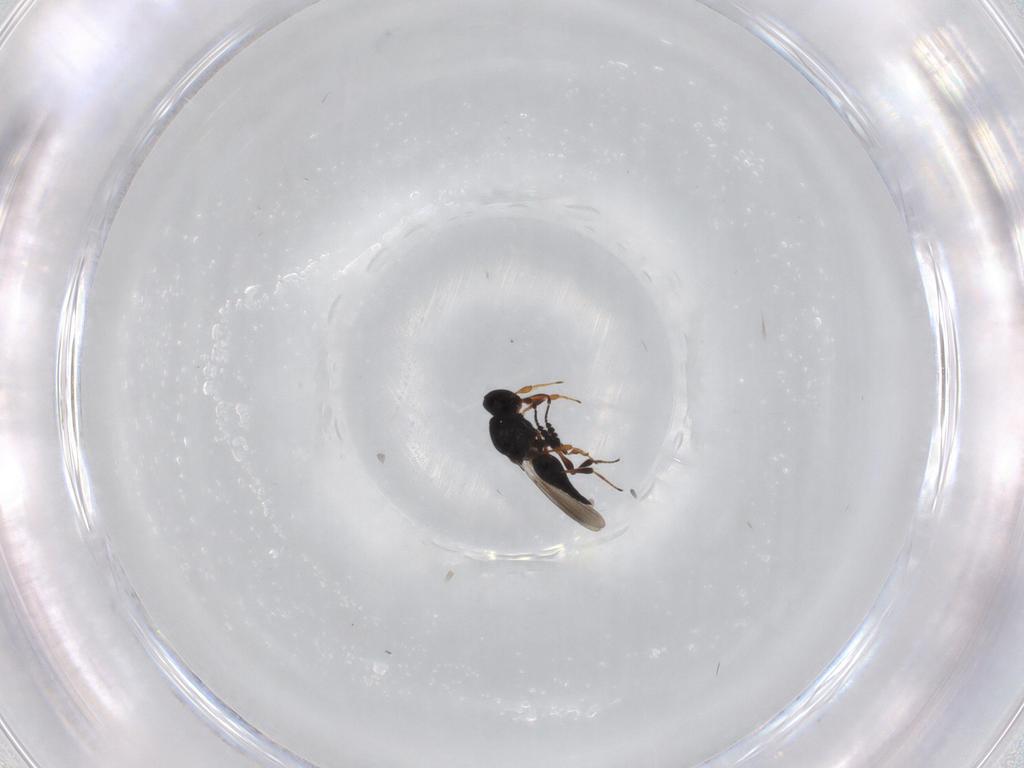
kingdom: Animalia
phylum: Arthropoda
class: Insecta
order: Hymenoptera
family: Platygastridae
